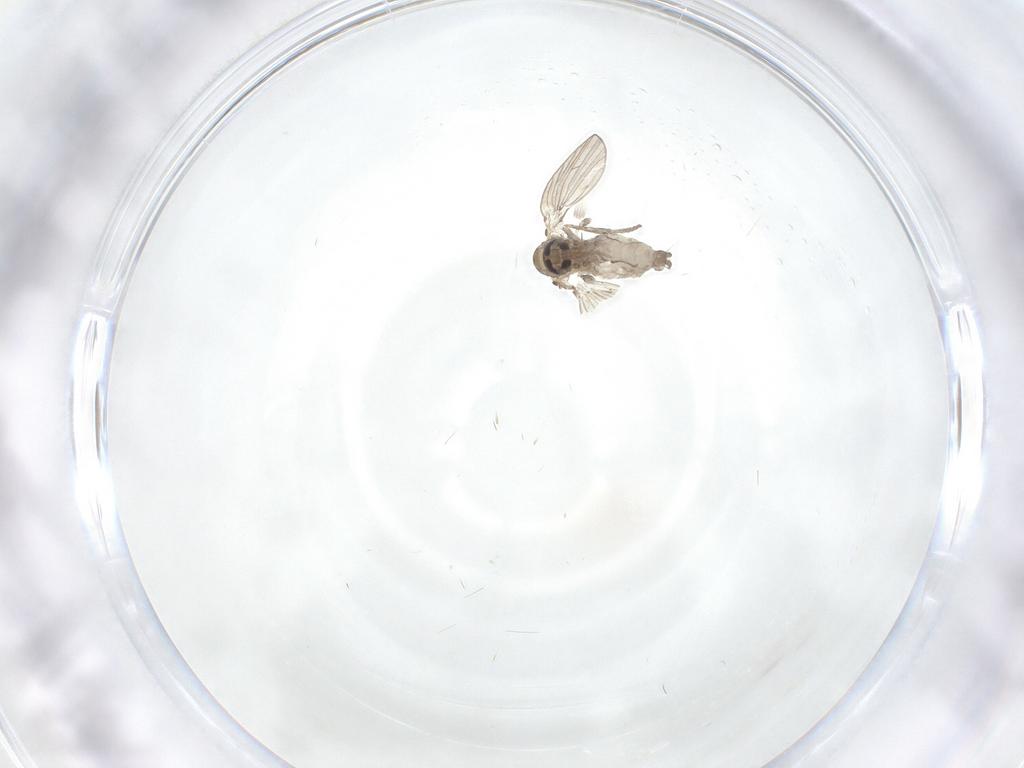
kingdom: Animalia
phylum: Arthropoda
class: Insecta
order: Diptera
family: Psychodidae
